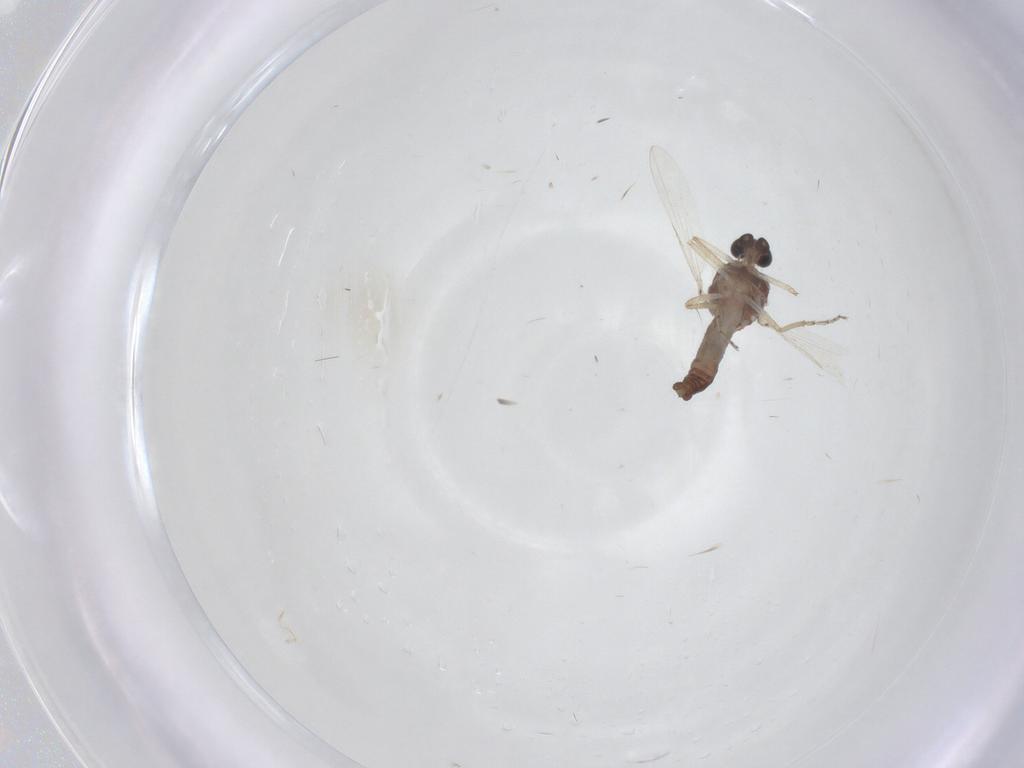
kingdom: Animalia
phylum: Arthropoda
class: Insecta
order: Diptera
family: Ceratopogonidae
